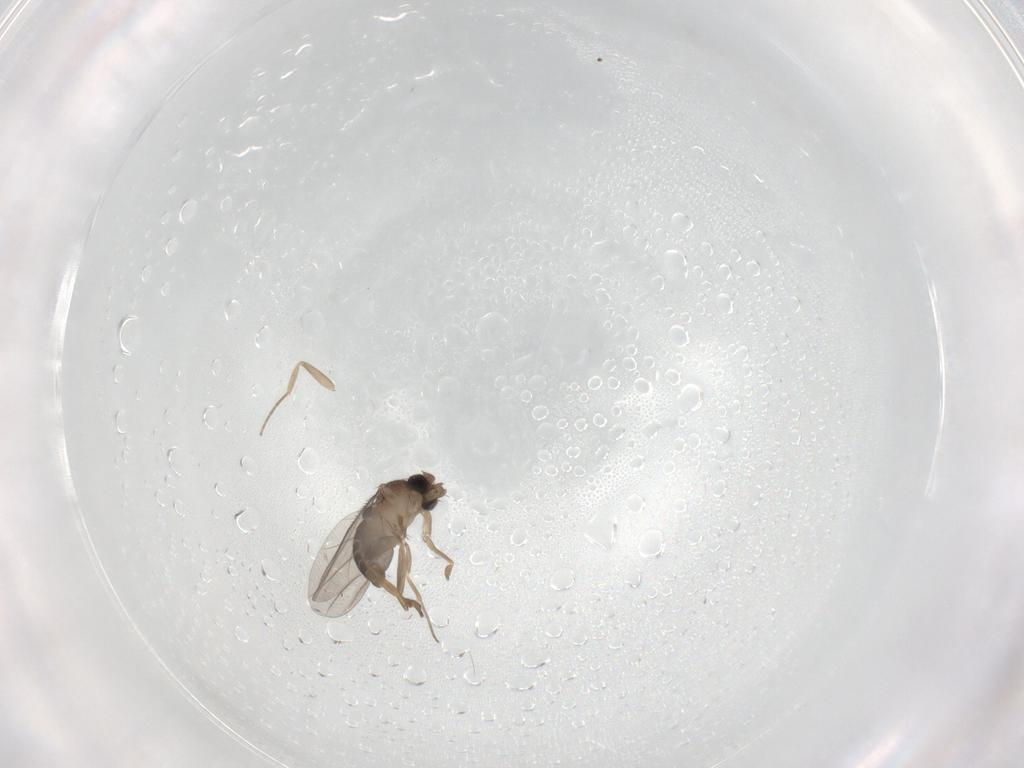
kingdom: Animalia
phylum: Arthropoda
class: Insecta
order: Diptera
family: Phoridae
